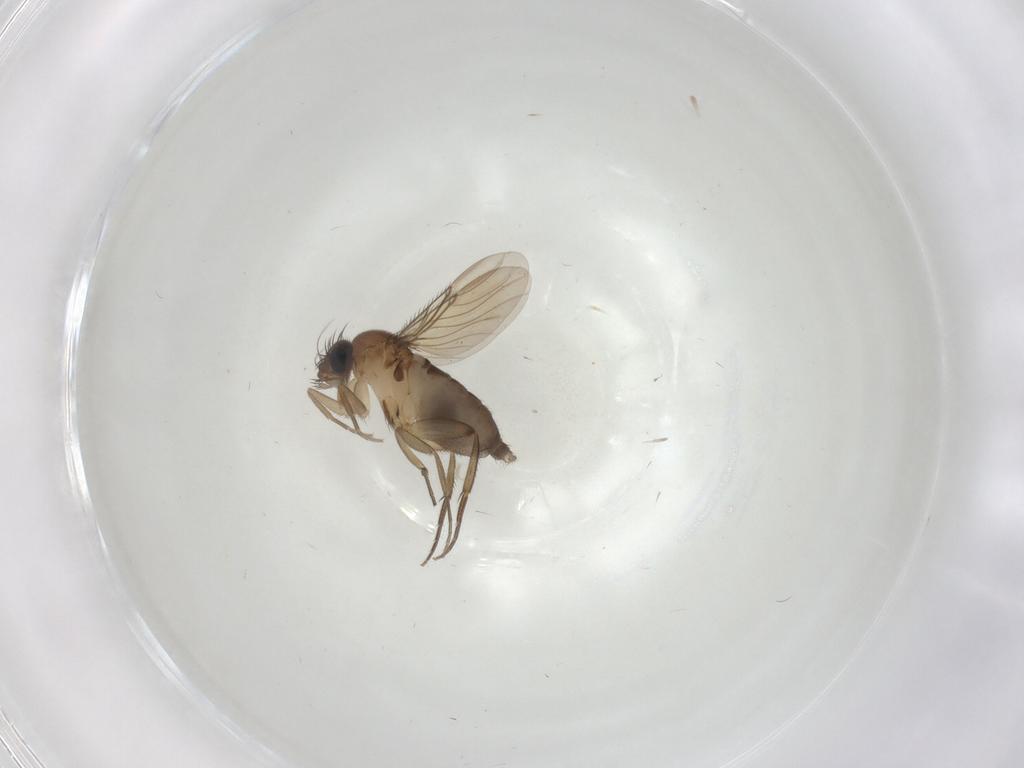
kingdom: Animalia
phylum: Arthropoda
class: Insecta
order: Diptera
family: Phoridae
